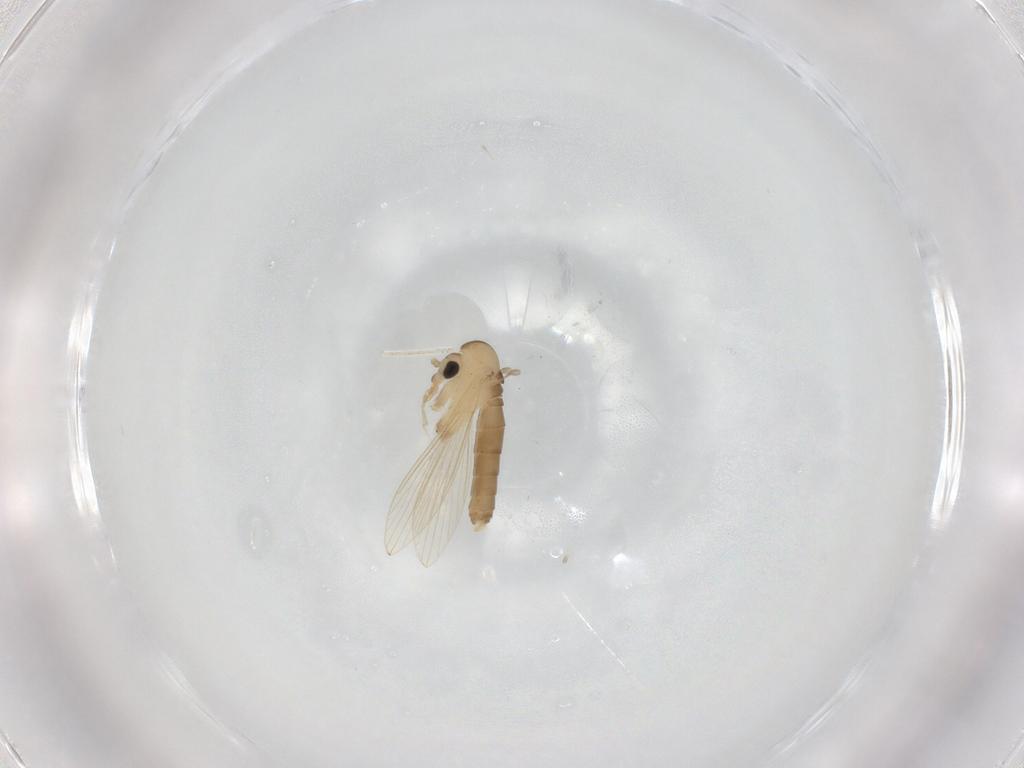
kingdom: Animalia
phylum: Arthropoda
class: Insecta
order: Diptera
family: Psychodidae
